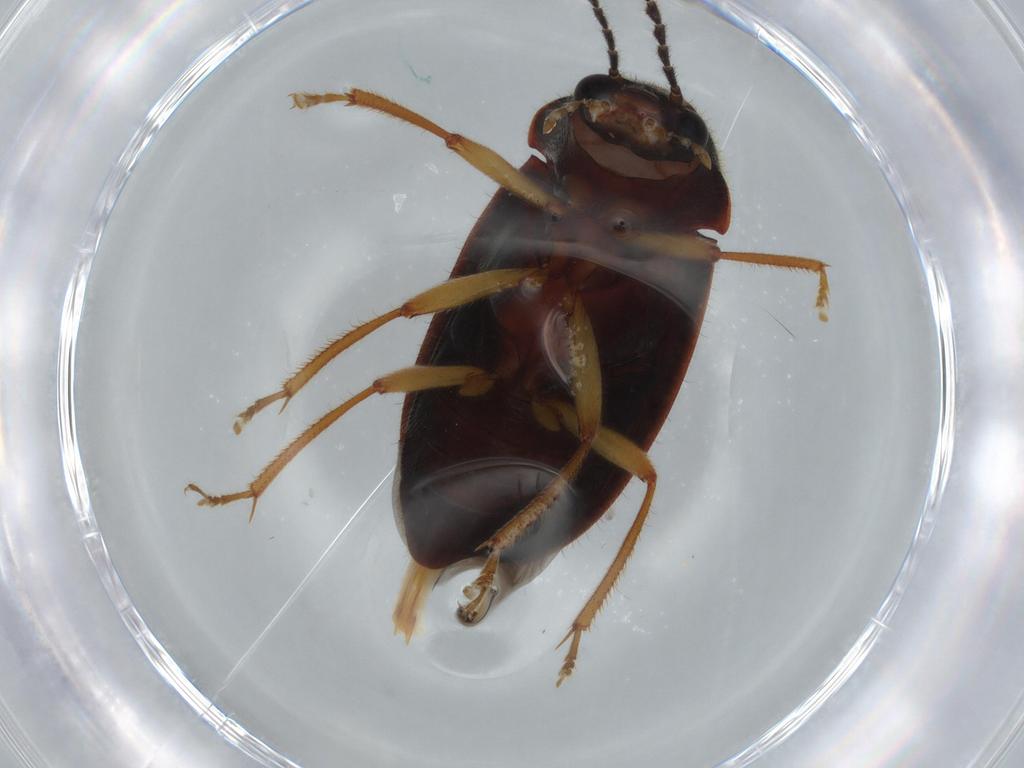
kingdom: Animalia
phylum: Arthropoda
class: Insecta
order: Coleoptera
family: Ptilodactylidae
